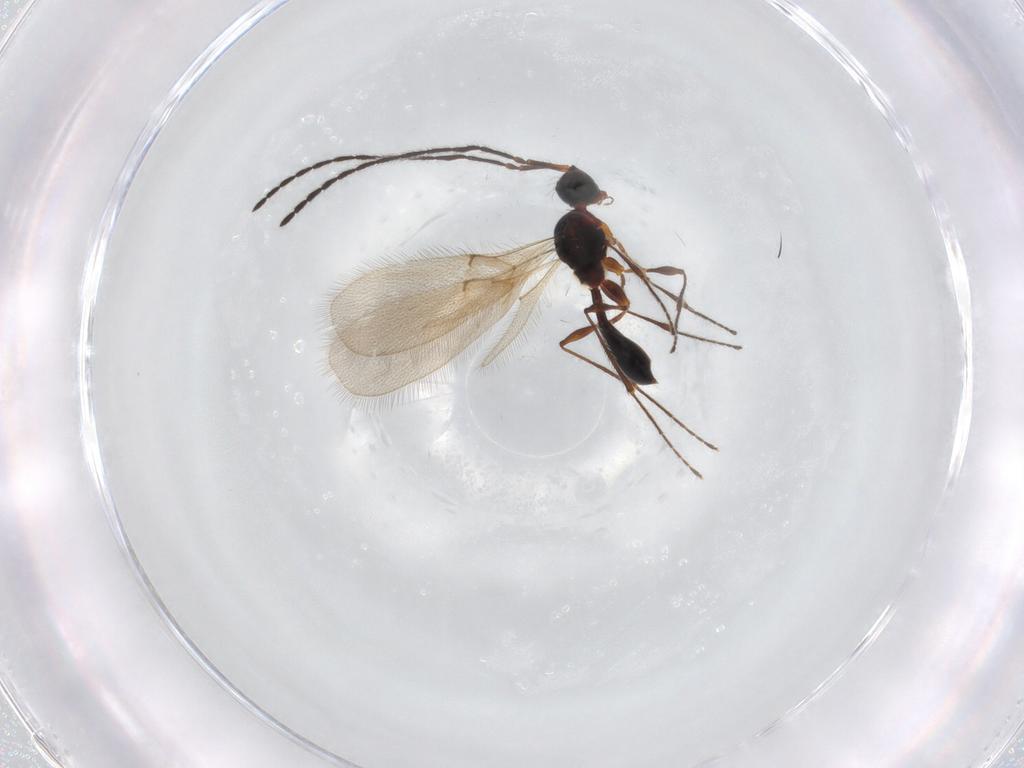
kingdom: Animalia
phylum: Arthropoda
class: Insecta
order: Hymenoptera
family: Diapriidae
